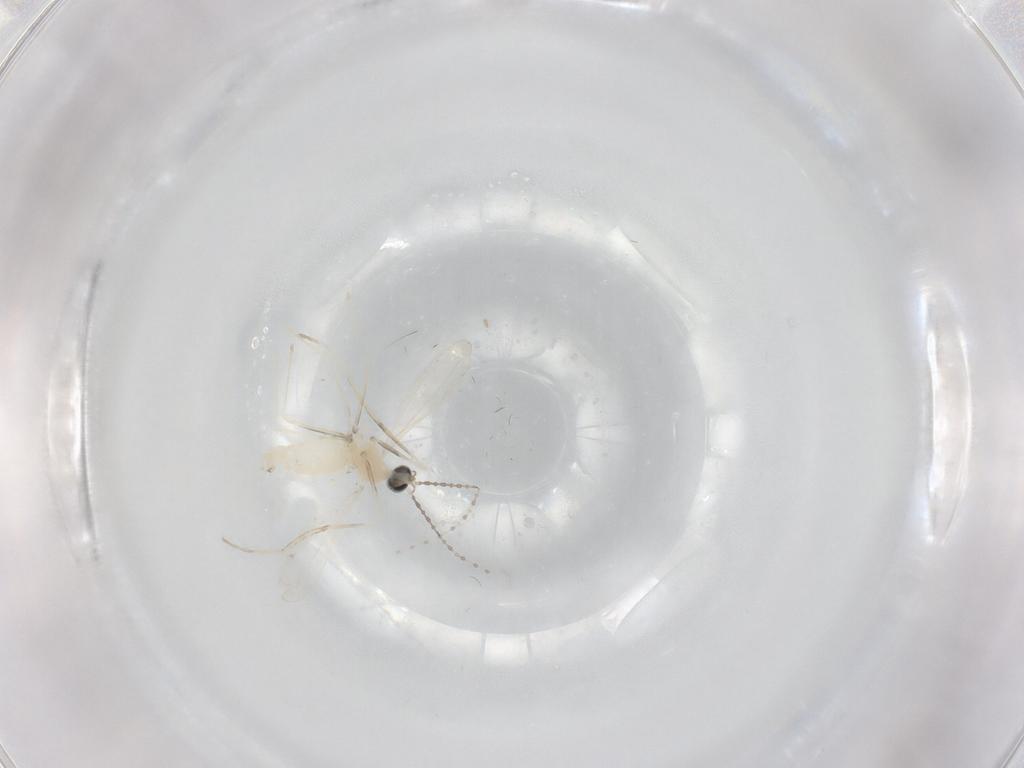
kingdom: Animalia
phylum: Arthropoda
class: Insecta
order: Diptera
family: Cecidomyiidae
